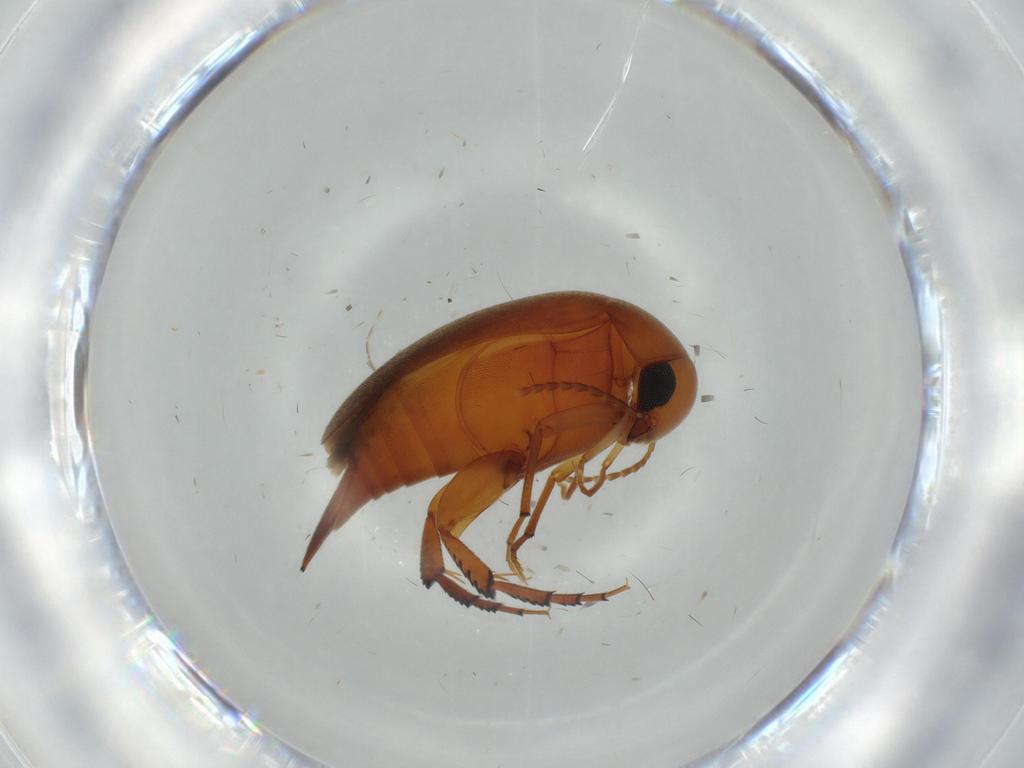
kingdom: Animalia
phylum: Arthropoda
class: Insecta
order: Coleoptera
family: Mordellidae
